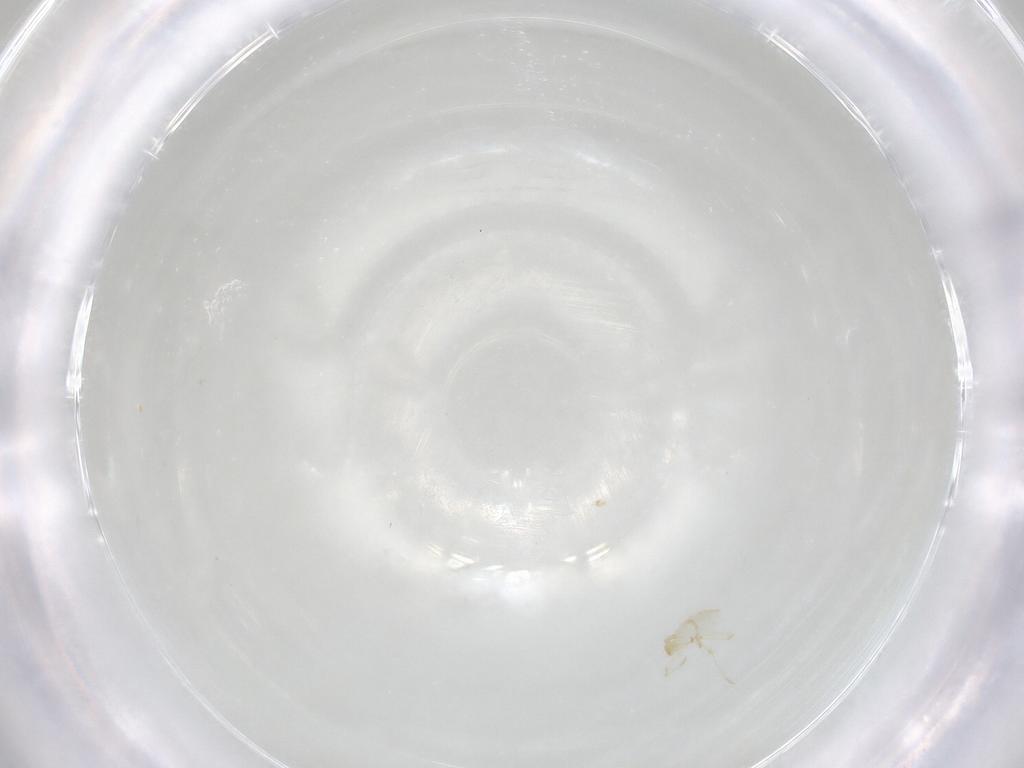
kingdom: Animalia
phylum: Arthropoda
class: Arachnida
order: Trombidiformes
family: Erythraeidae
